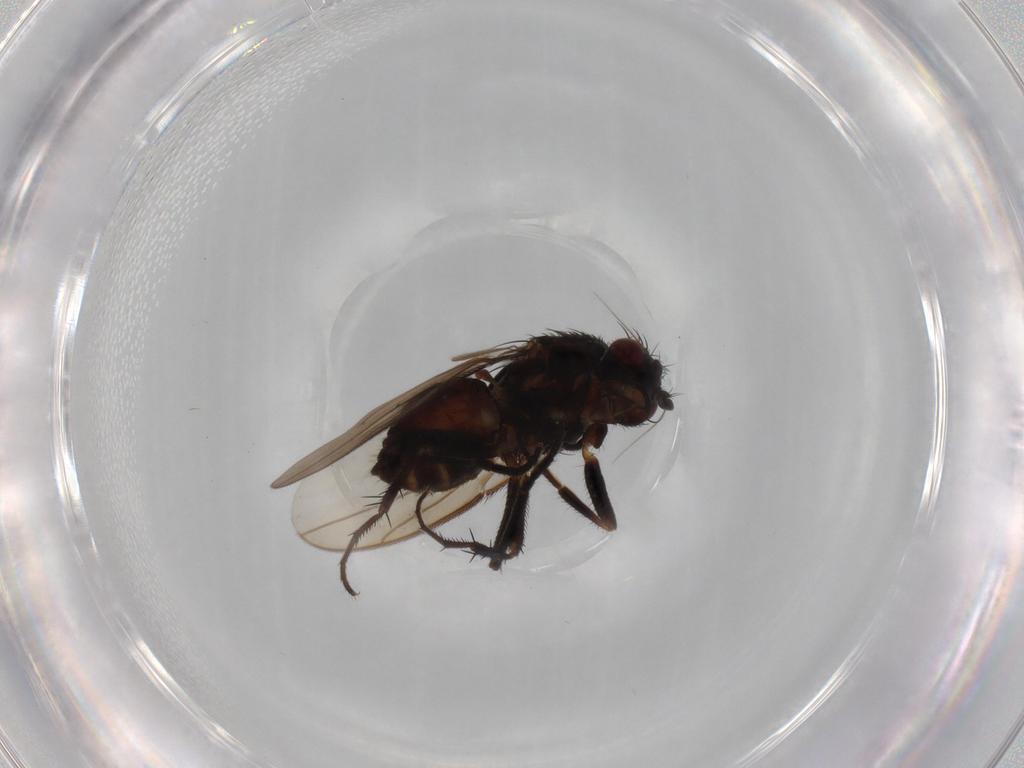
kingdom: Animalia
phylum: Arthropoda
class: Insecta
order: Diptera
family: Sphaeroceridae
